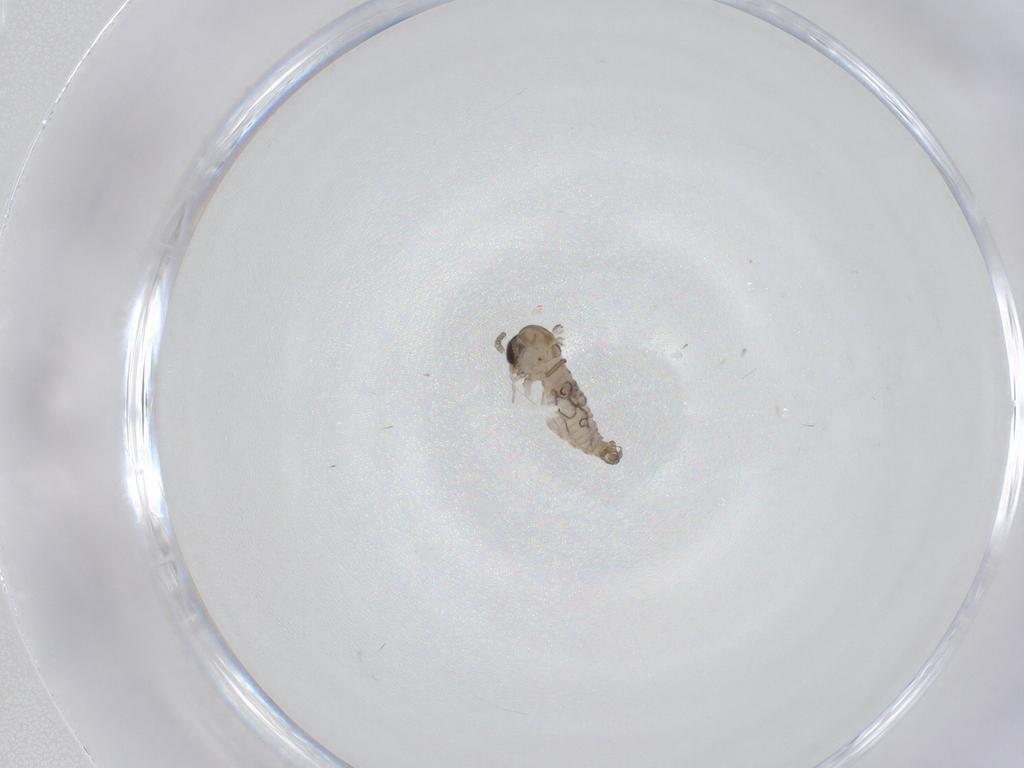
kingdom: Animalia
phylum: Arthropoda
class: Insecta
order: Diptera
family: Psychodidae
